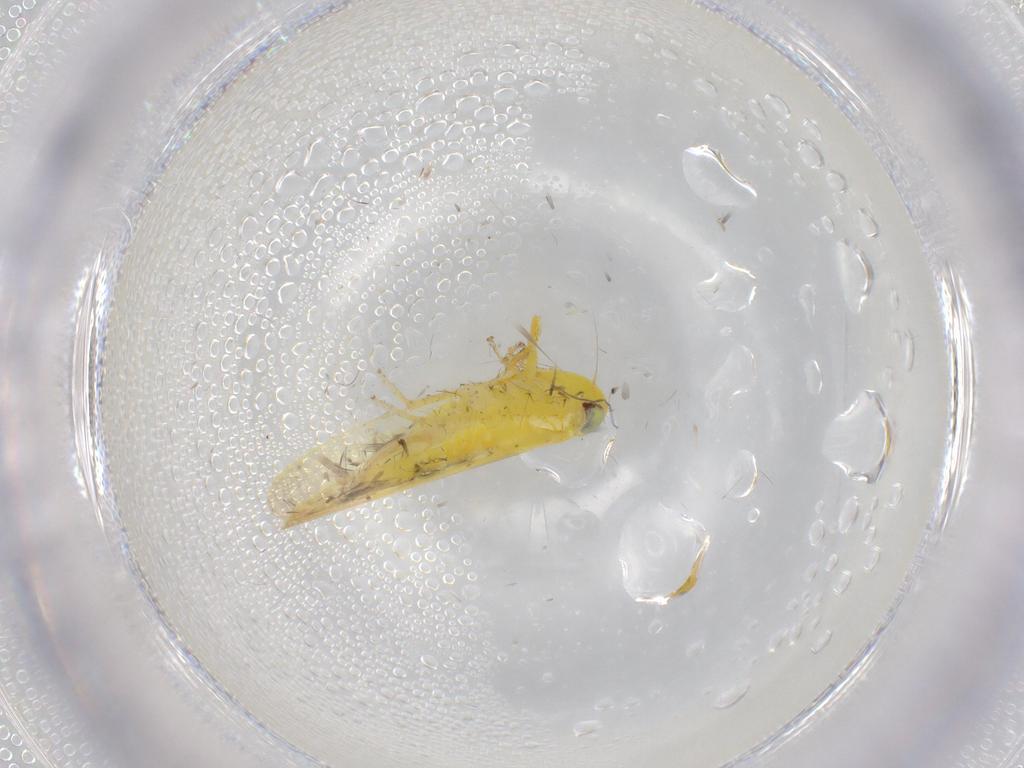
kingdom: Animalia
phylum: Arthropoda
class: Insecta
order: Hemiptera
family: Cicadellidae
